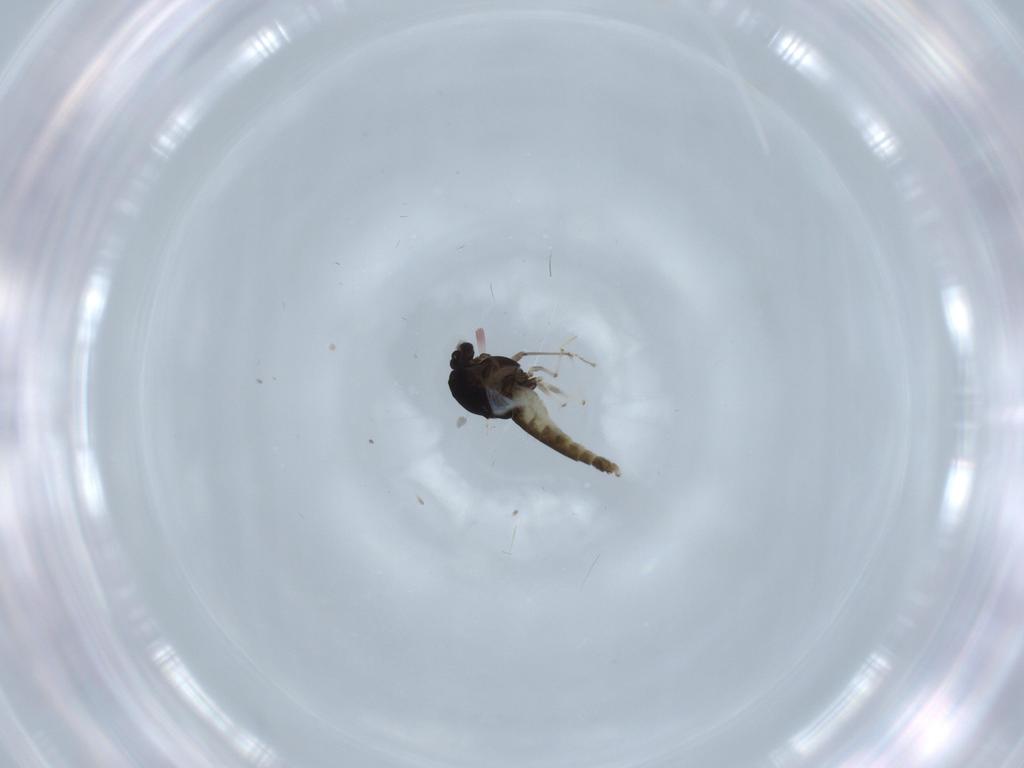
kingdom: Animalia
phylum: Arthropoda
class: Insecta
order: Diptera
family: Chironomidae
